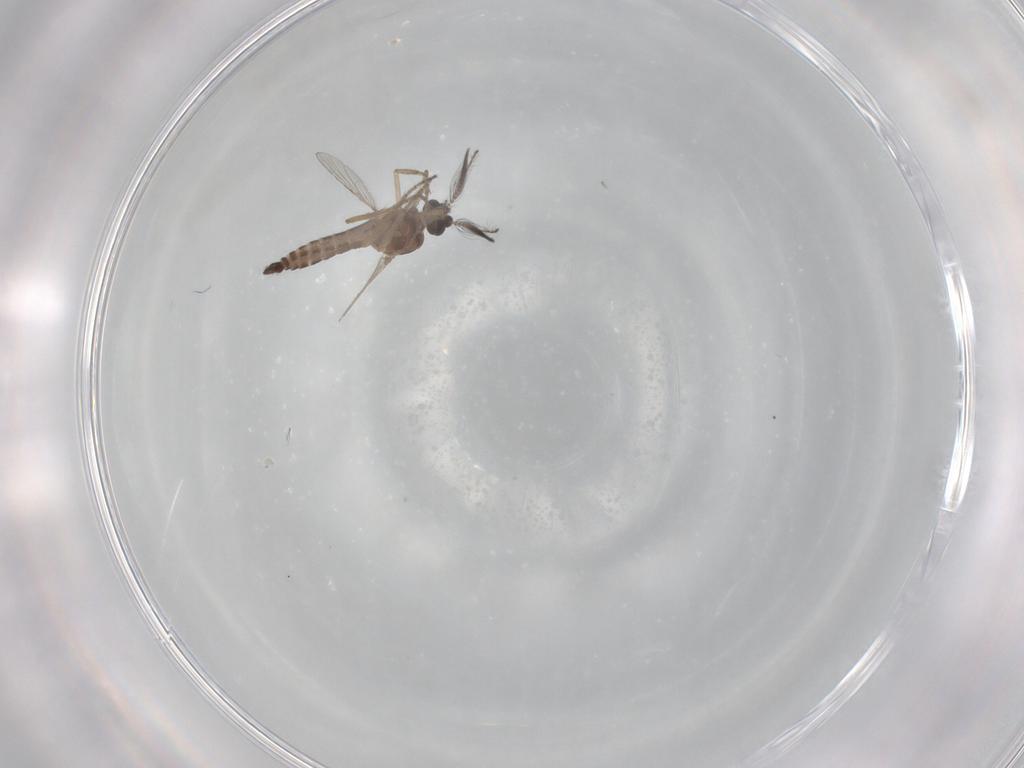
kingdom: Animalia
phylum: Arthropoda
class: Insecta
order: Diptera
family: Ceratopogonidae
